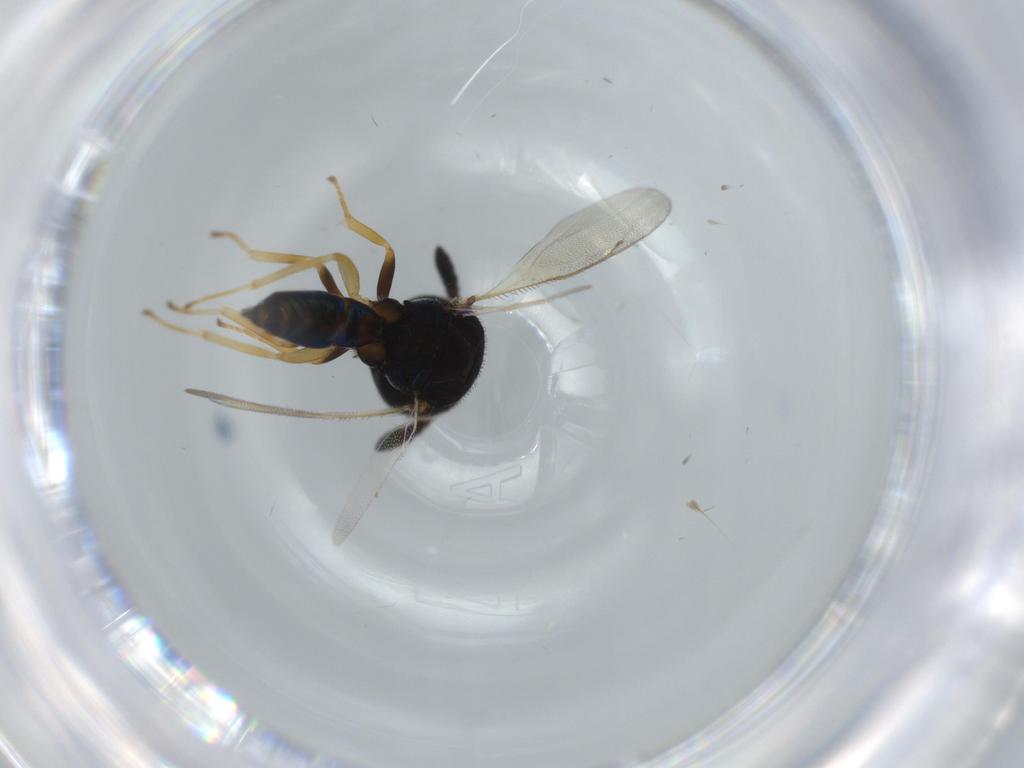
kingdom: Animalia
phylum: Arthropoda
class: Insecta
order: Hymenoptera
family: Pteromalidae
